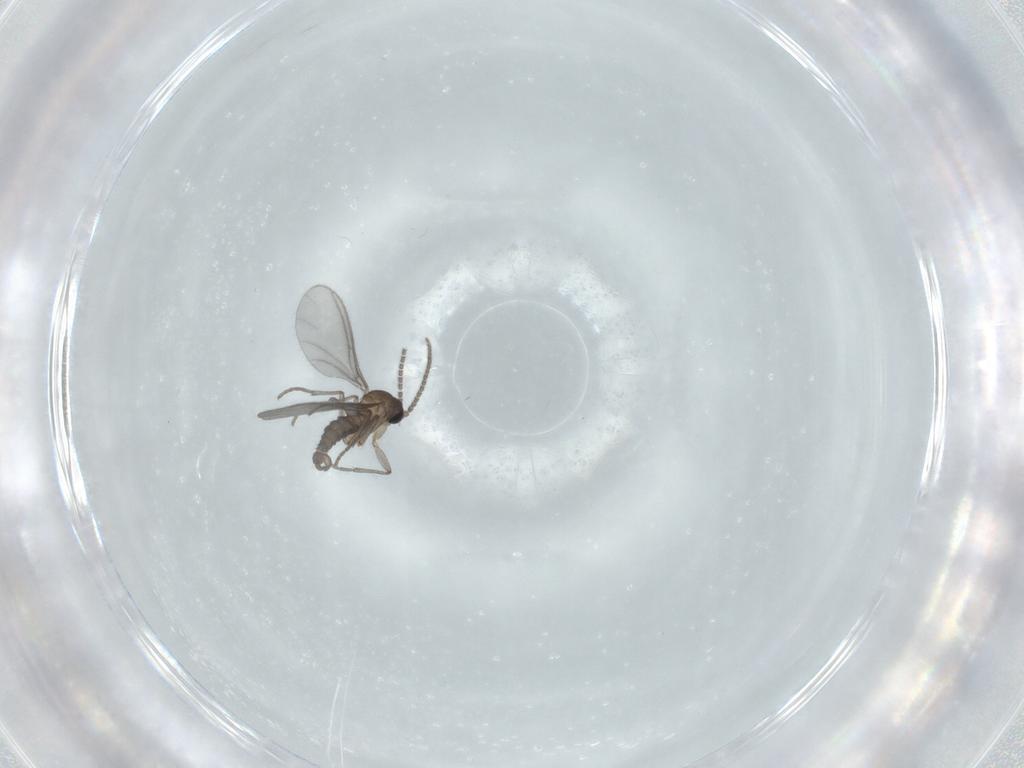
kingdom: Animalia
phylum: Arthropoda
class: Insecta
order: Diptera
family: Sciaridae
